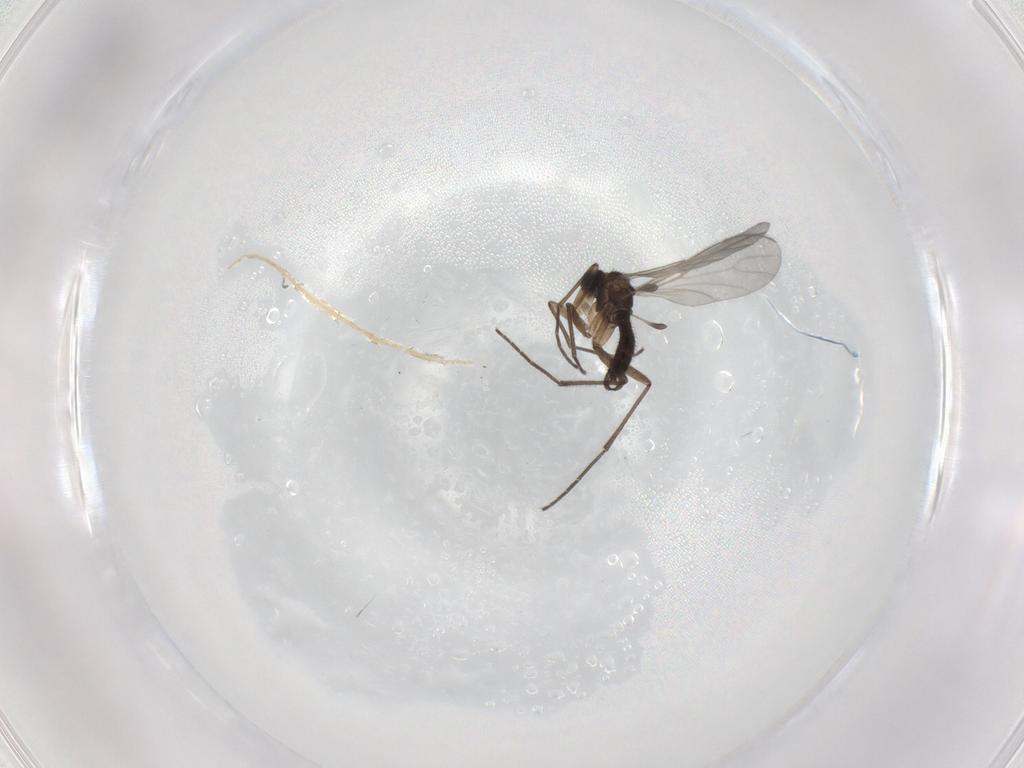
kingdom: Animalia
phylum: Arthropoda
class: Insecta
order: Diptera
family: Sciaridae
